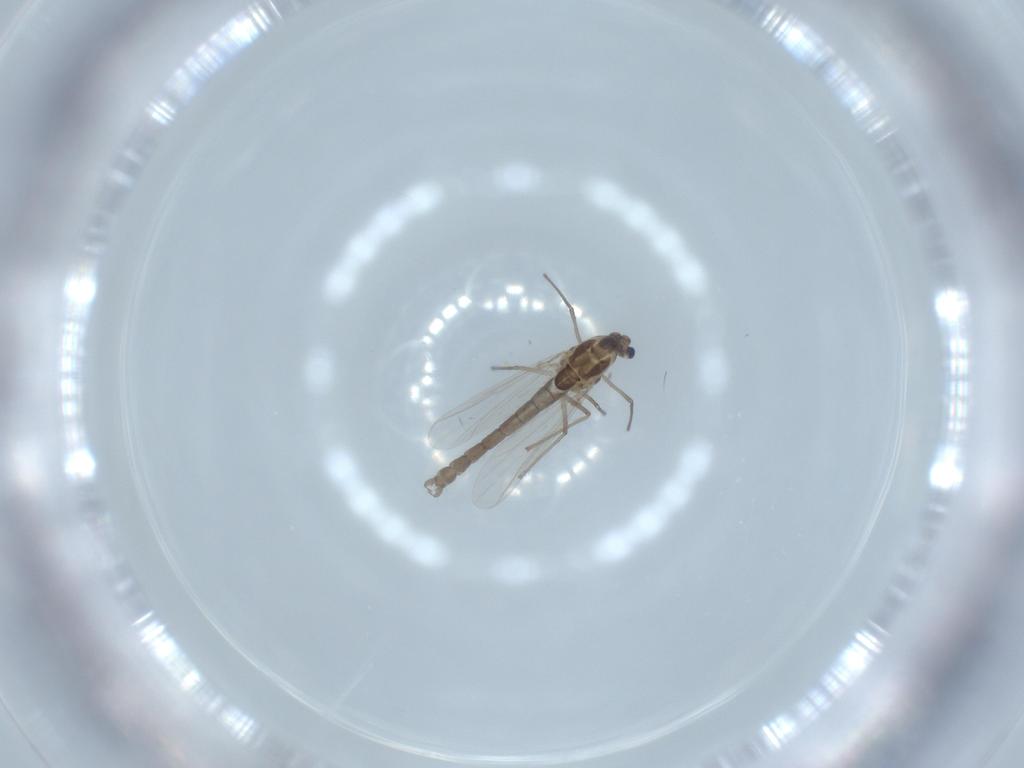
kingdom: Animalia
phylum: Arthropoda
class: Insecta
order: Diptera
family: Chironomidae
